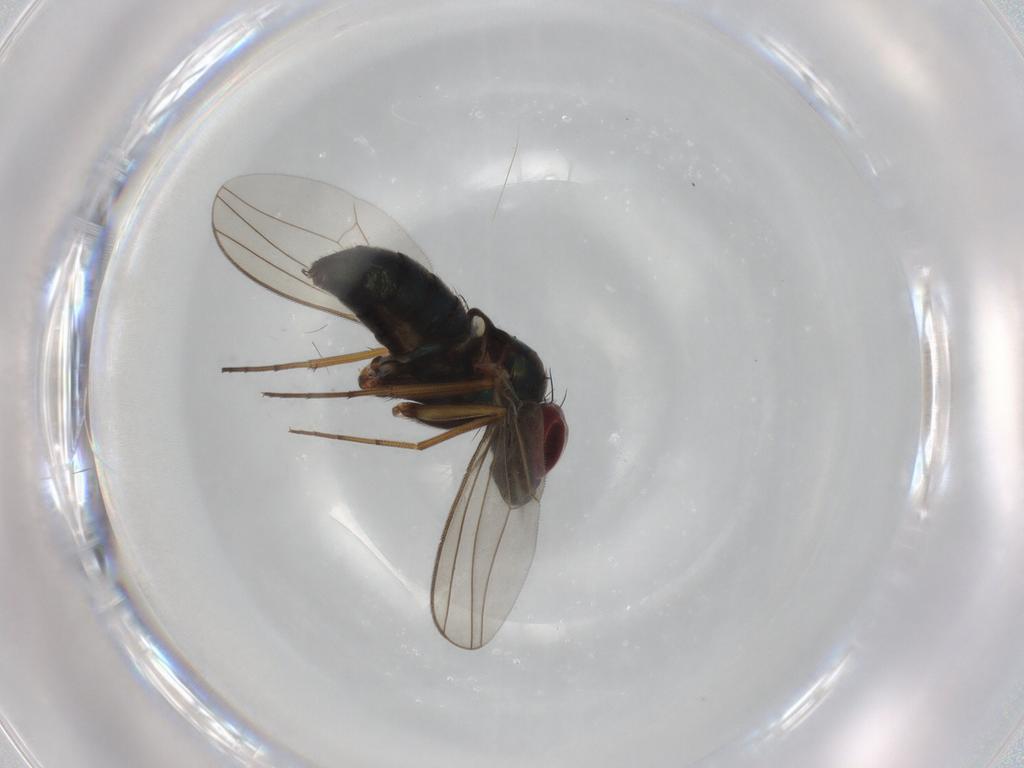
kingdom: Animalia
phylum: Arthropoda
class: Insecta
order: Diptera
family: Dolichopodidae
